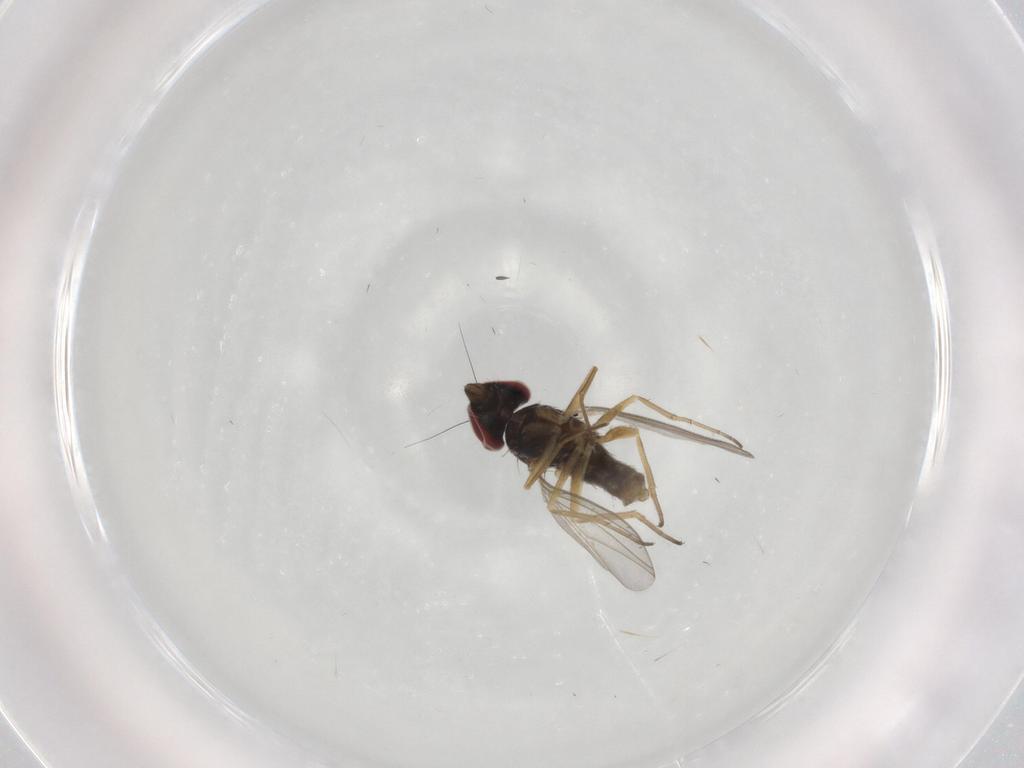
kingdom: Animalia
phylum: Arthropoda
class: Insecta
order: Diptera
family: Dolichopodidae
